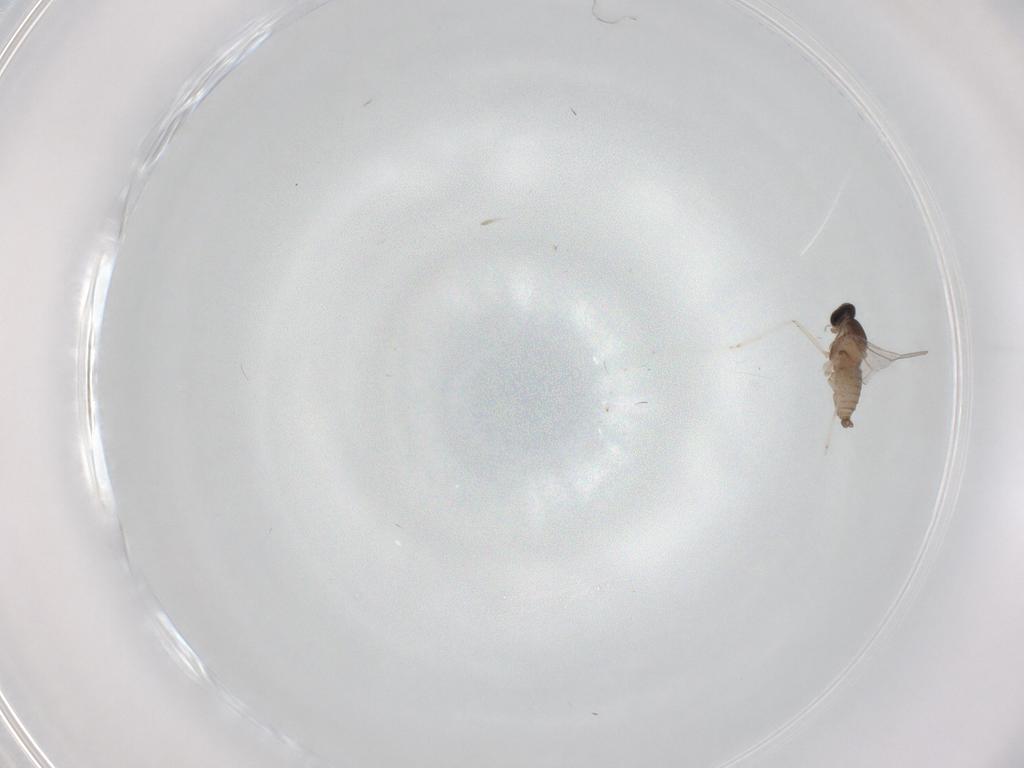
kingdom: Animalia
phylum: Arthropoda
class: Insecta
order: Diptera
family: Cecidomyiidae
